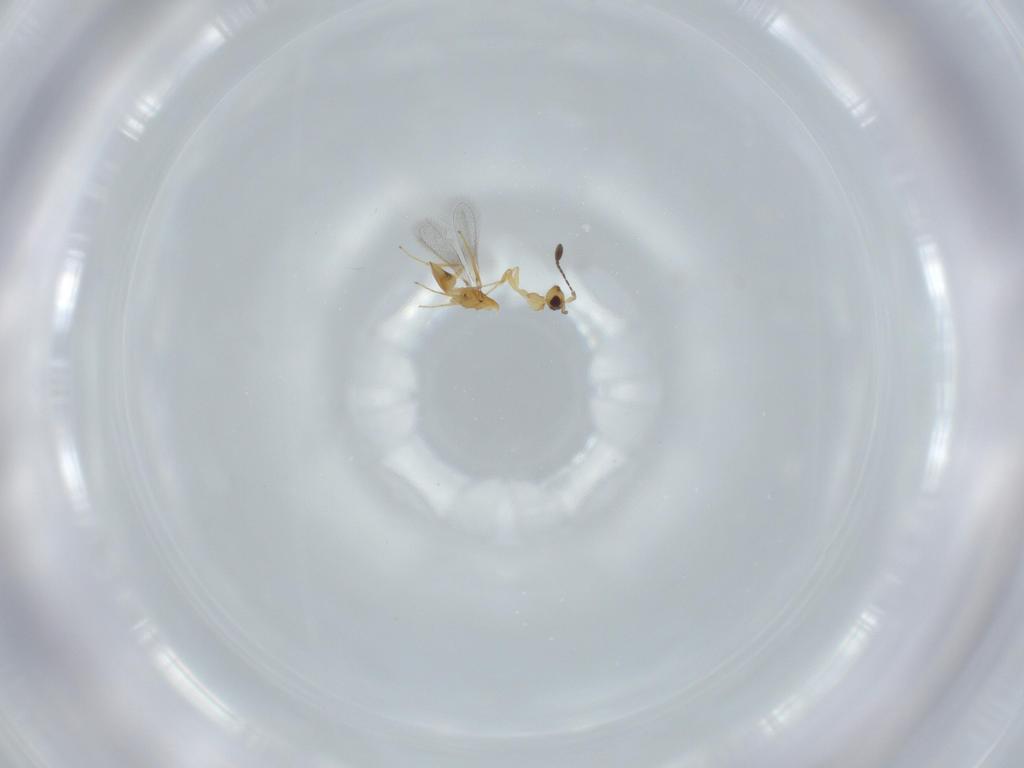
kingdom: Animalia
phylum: Arthropoda
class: Insecta
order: Hymenoptera
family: Mymaridae
